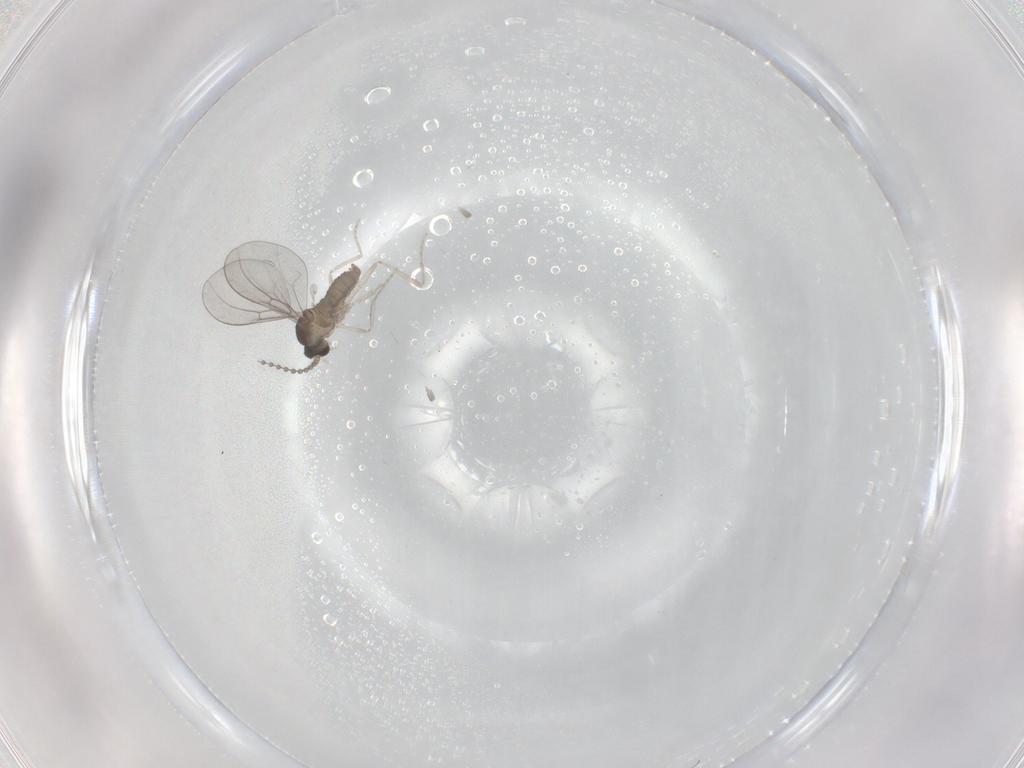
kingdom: Animalia
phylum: Arthropoda
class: Insecta
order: Diptera
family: Cecidomyiidae
